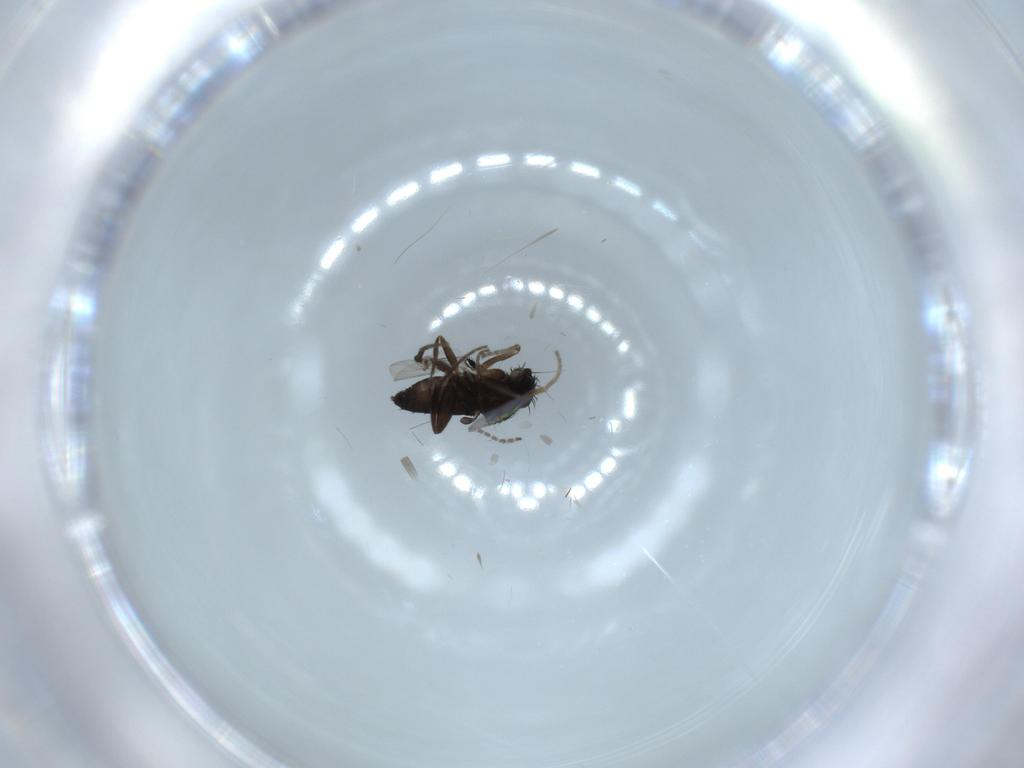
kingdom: Animalia
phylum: Arthropoda
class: Insecta
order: Diptera
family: Phoridae
